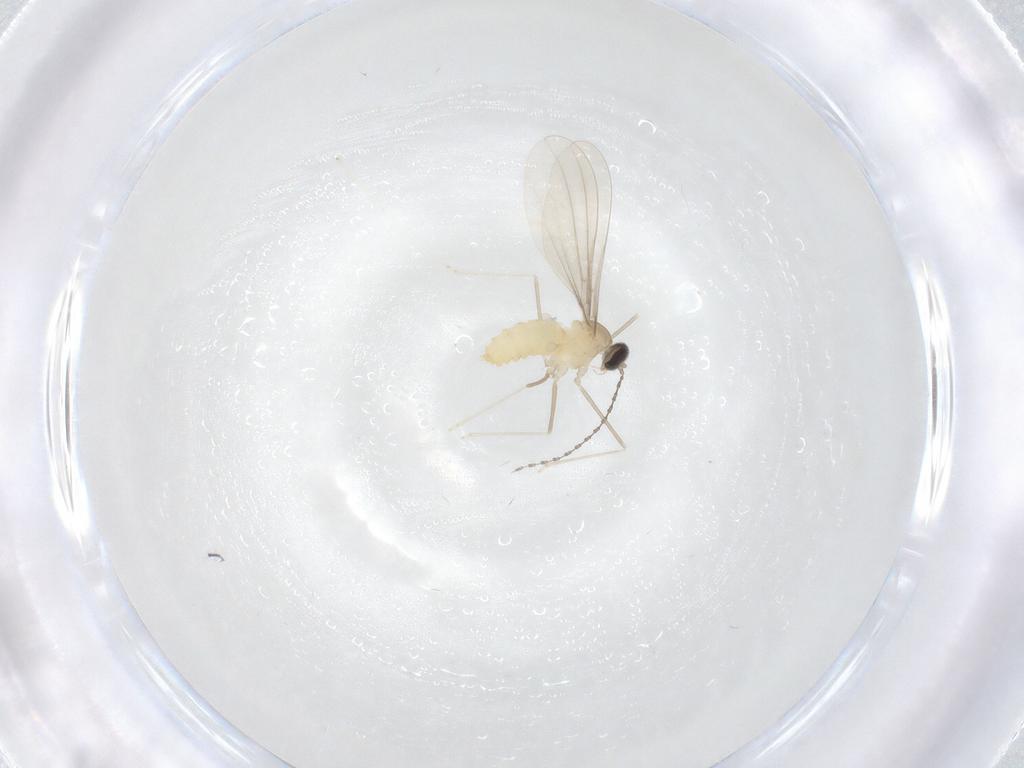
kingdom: Animalia
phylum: Arthropoda
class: Insecta
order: Diptera
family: Cecidomyiidae
